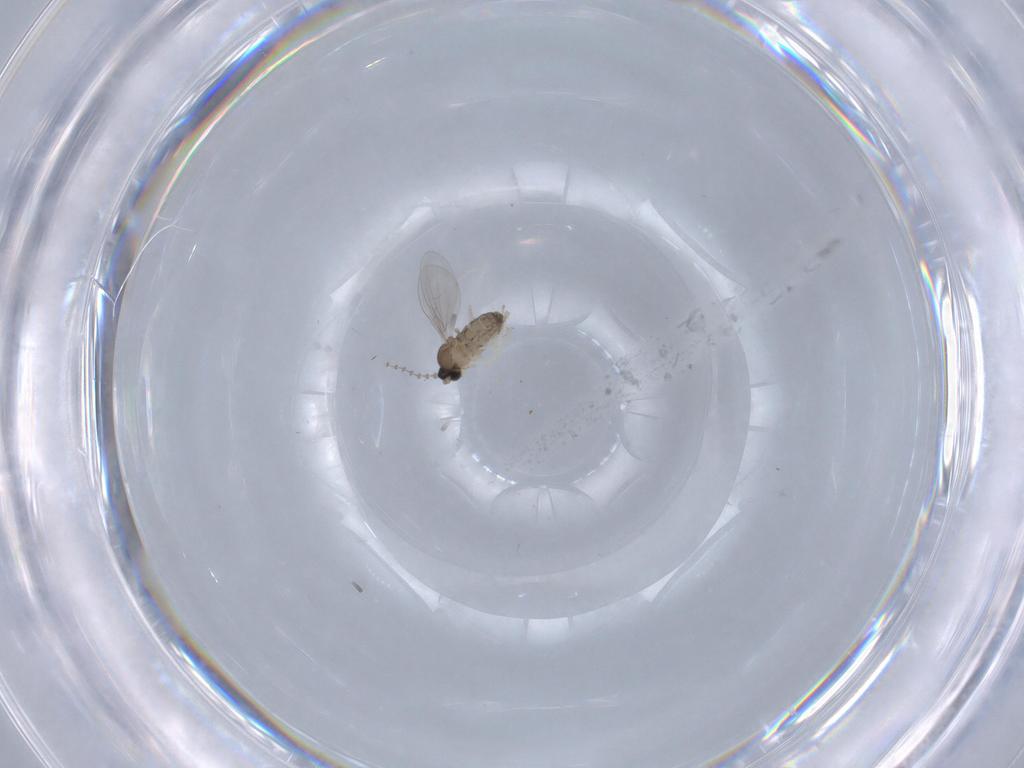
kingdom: Animalia
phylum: Arthropoda
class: Insecta
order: Diptera
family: Cecidomyiidae
